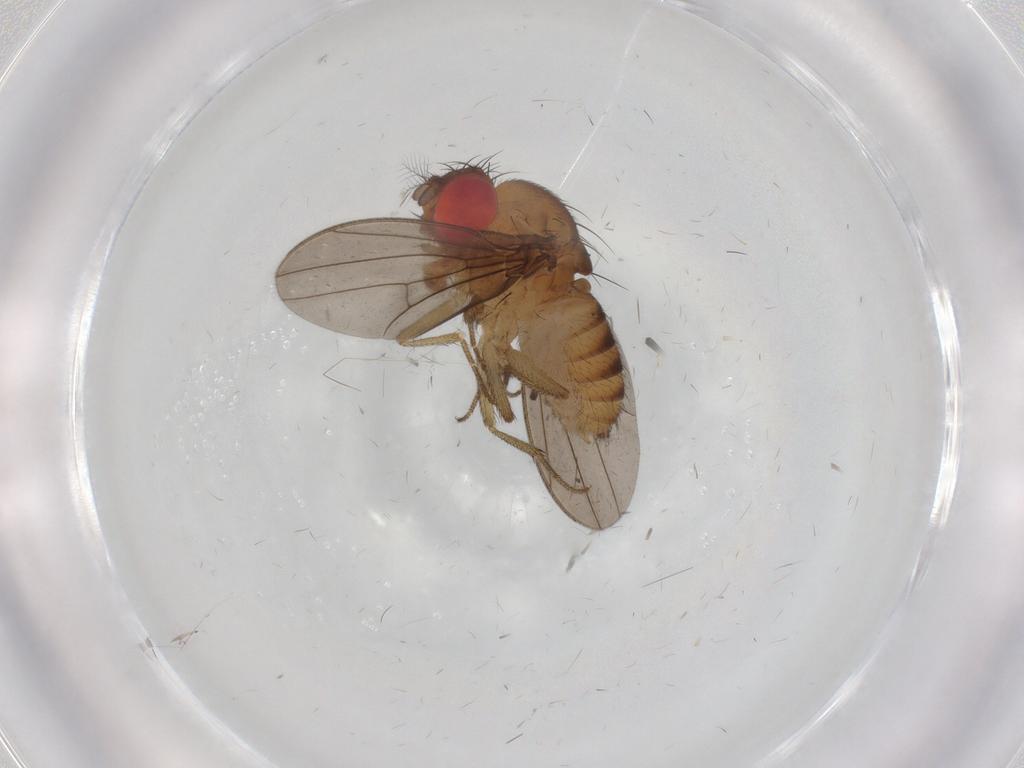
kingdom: Animalia
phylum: Arthropoda
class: Insecta
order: Diptera
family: Drosophilidae
